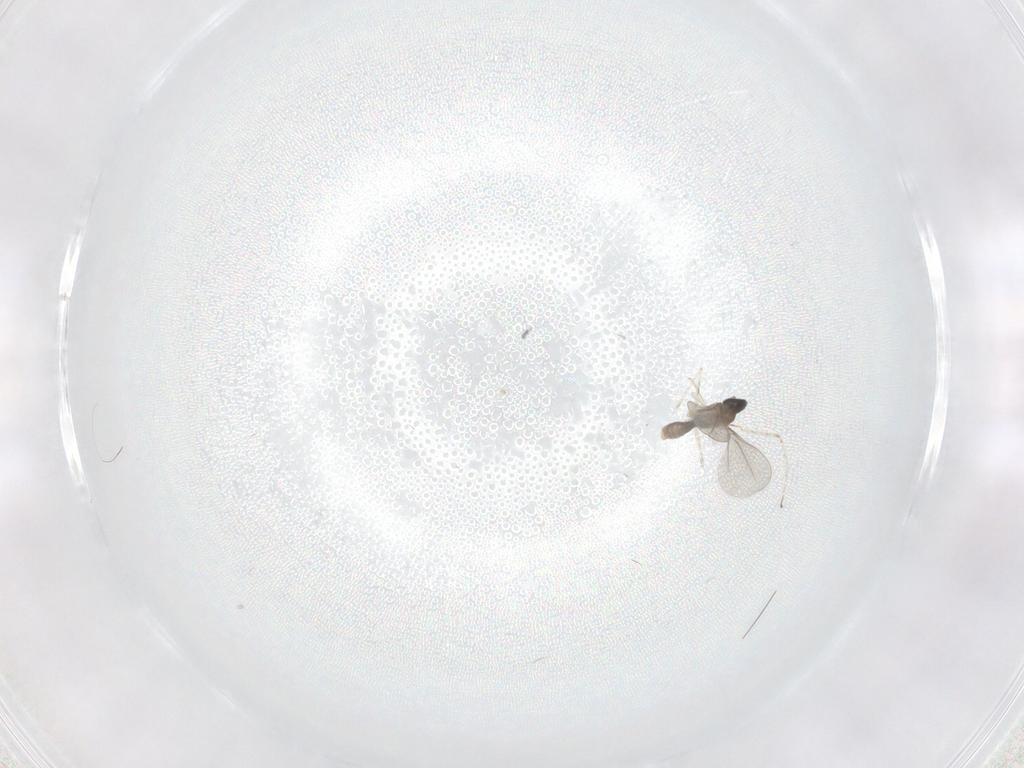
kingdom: Animalia
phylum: Arthropoda
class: Insecta
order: Diptera
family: Cecidomyiidae
